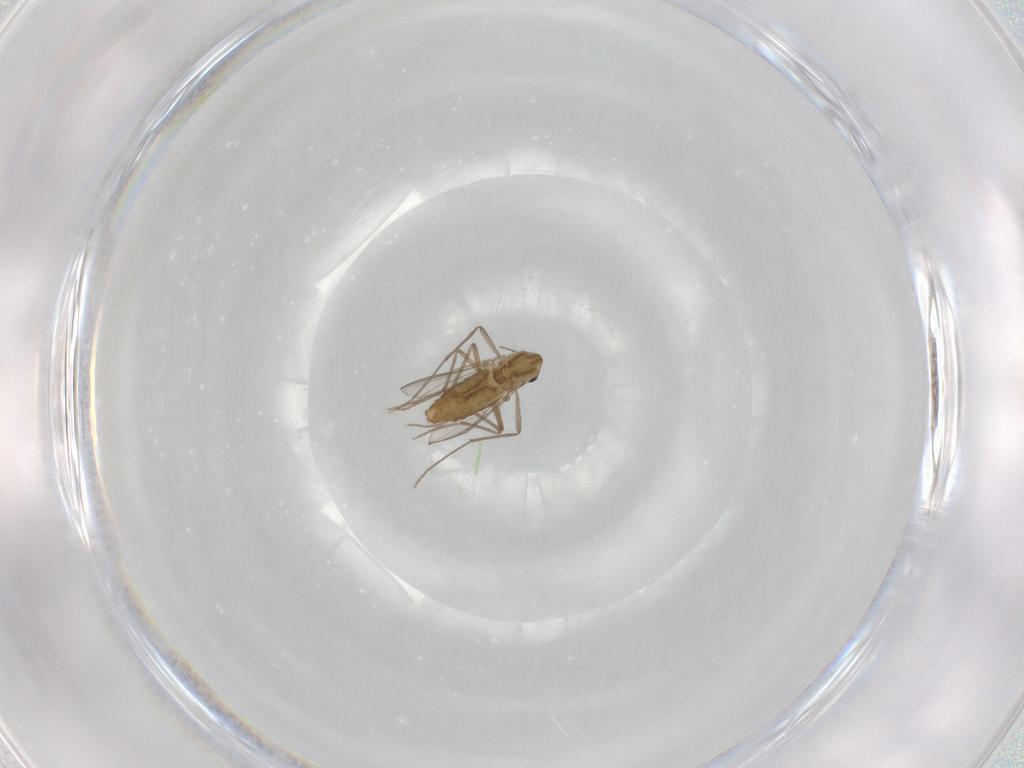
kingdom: Animalia
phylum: Arthropoda
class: Insecta
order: Diptera
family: Chironomidae
